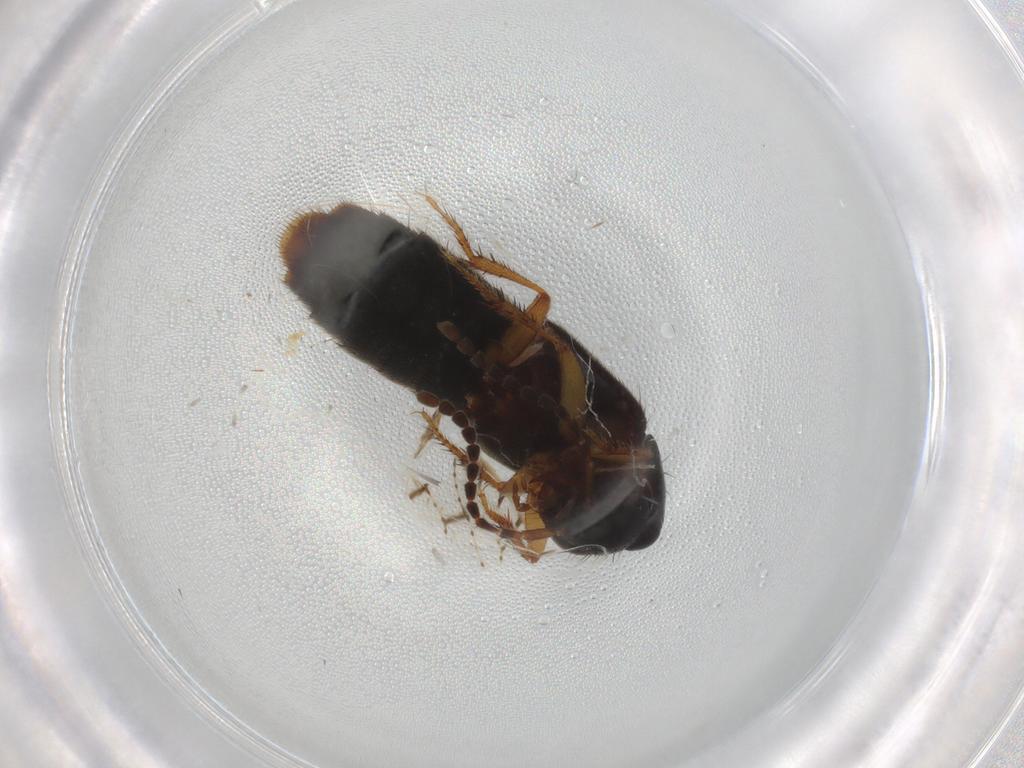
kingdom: Animalia
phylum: Arthropoda
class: Insecta
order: Coleoptera
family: Staphylinidae
